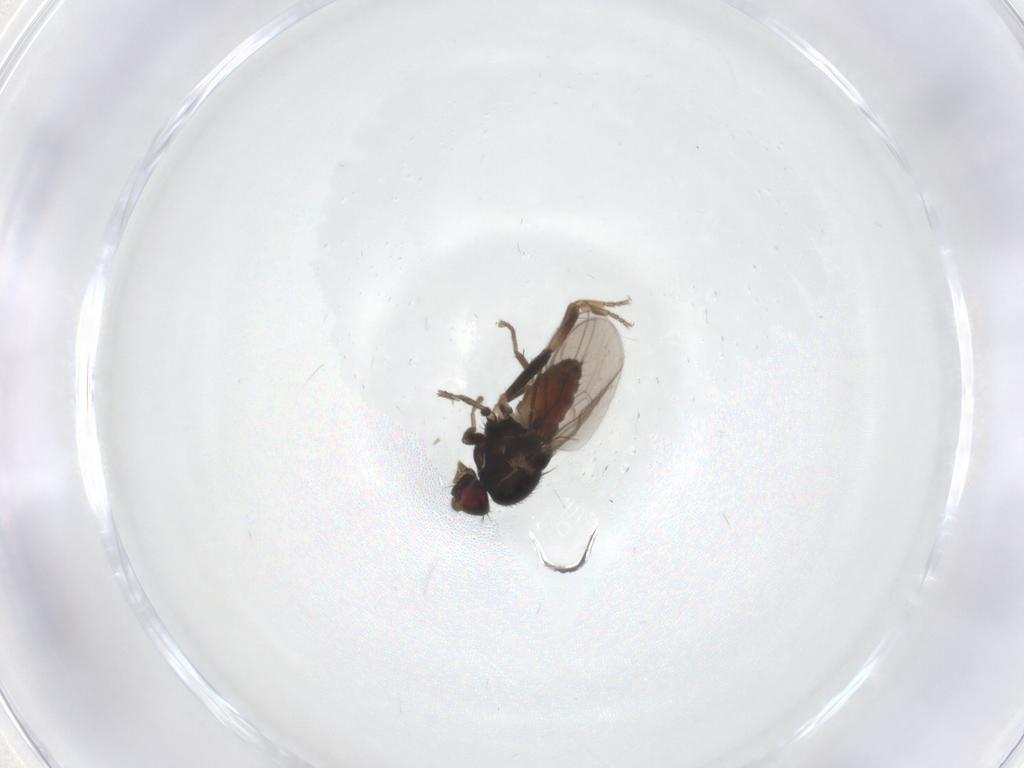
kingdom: Animalia
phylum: Arthropoda
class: Insecta
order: Diptera
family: Sphaeroceridae
